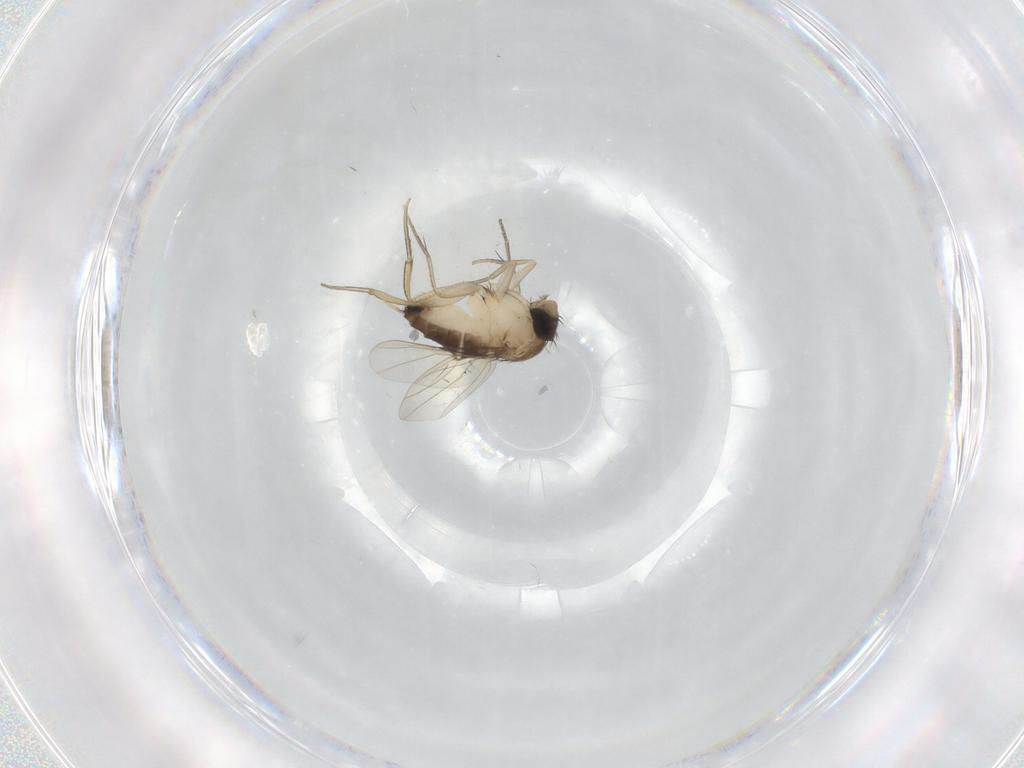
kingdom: Animalia
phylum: Arthropoda
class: Insecta
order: Diptera
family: Phoridae
